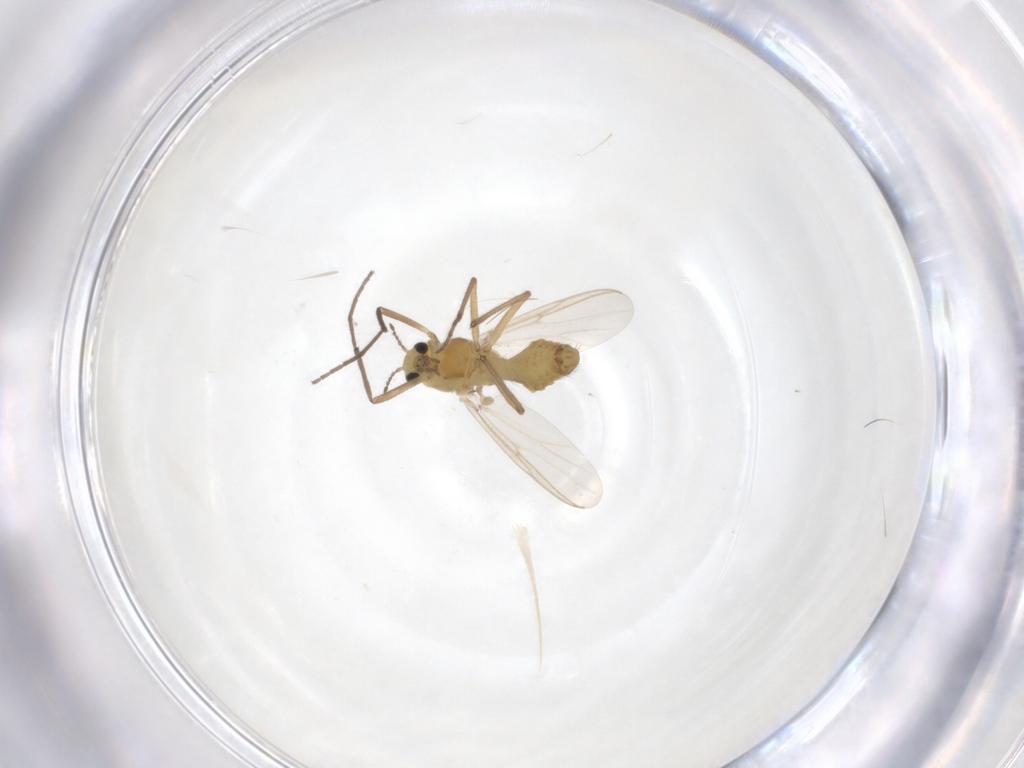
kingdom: Animalia
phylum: Arthropoda
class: Insecta
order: Diptera
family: Chironomidae
